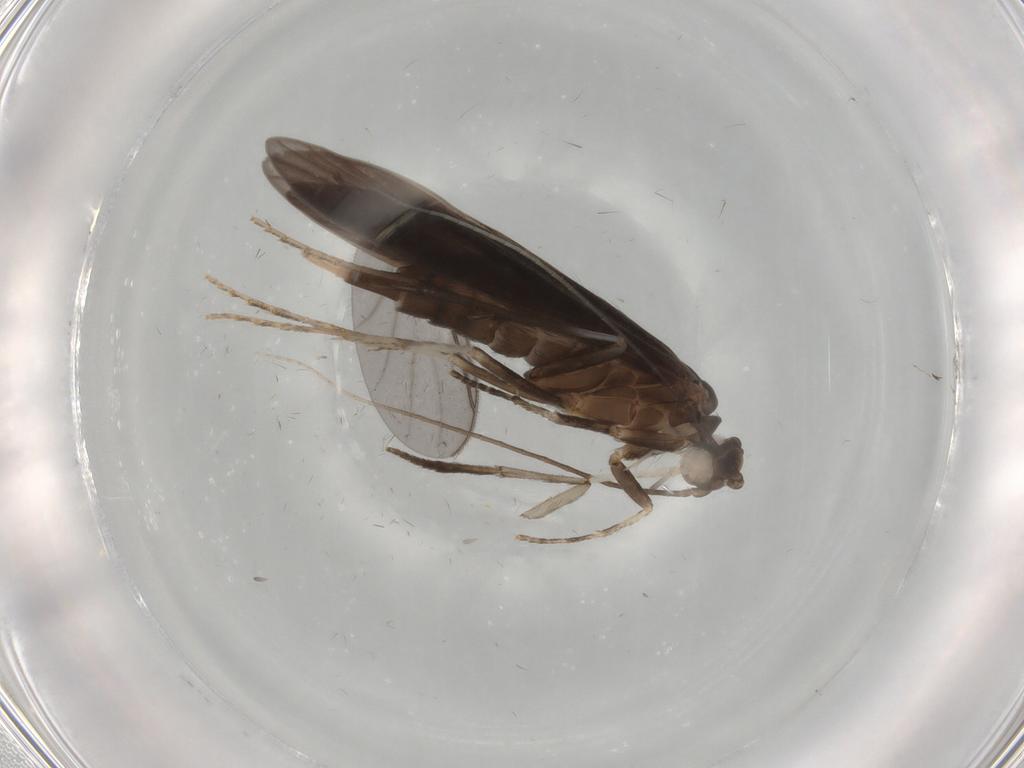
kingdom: Animalia
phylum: Arthropoda
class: Insecta
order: Trichoptera
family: Xiphocentronidae
